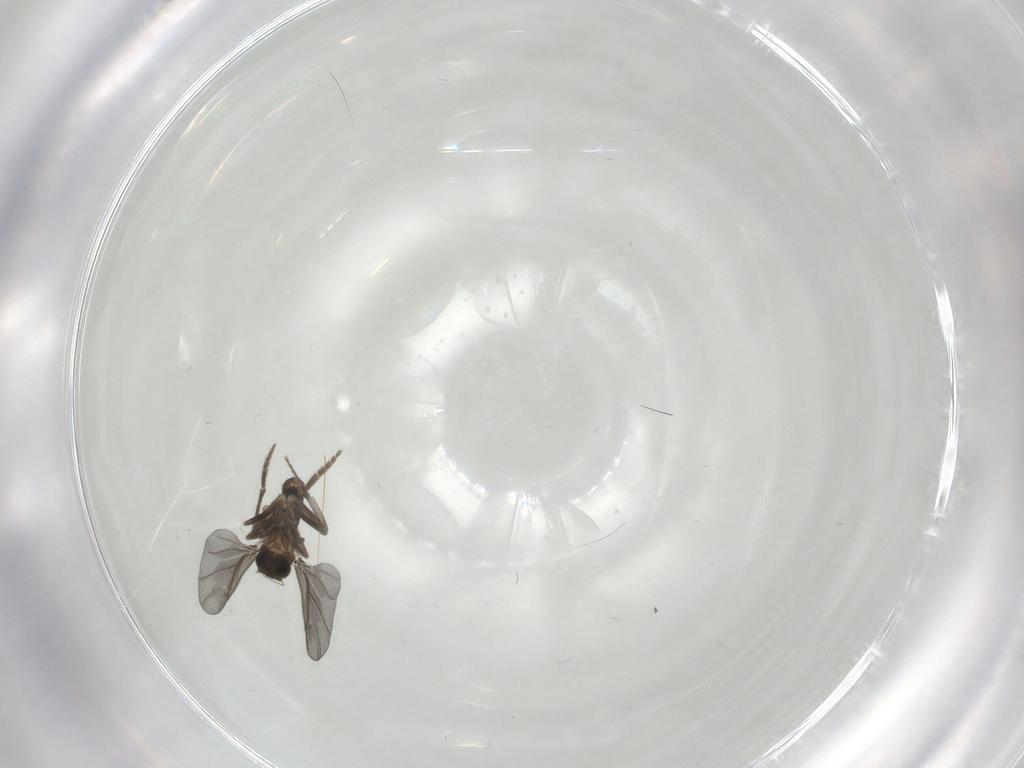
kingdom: Animalia
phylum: Arthropoda
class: Insecta
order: Diptera
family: Phoridae
